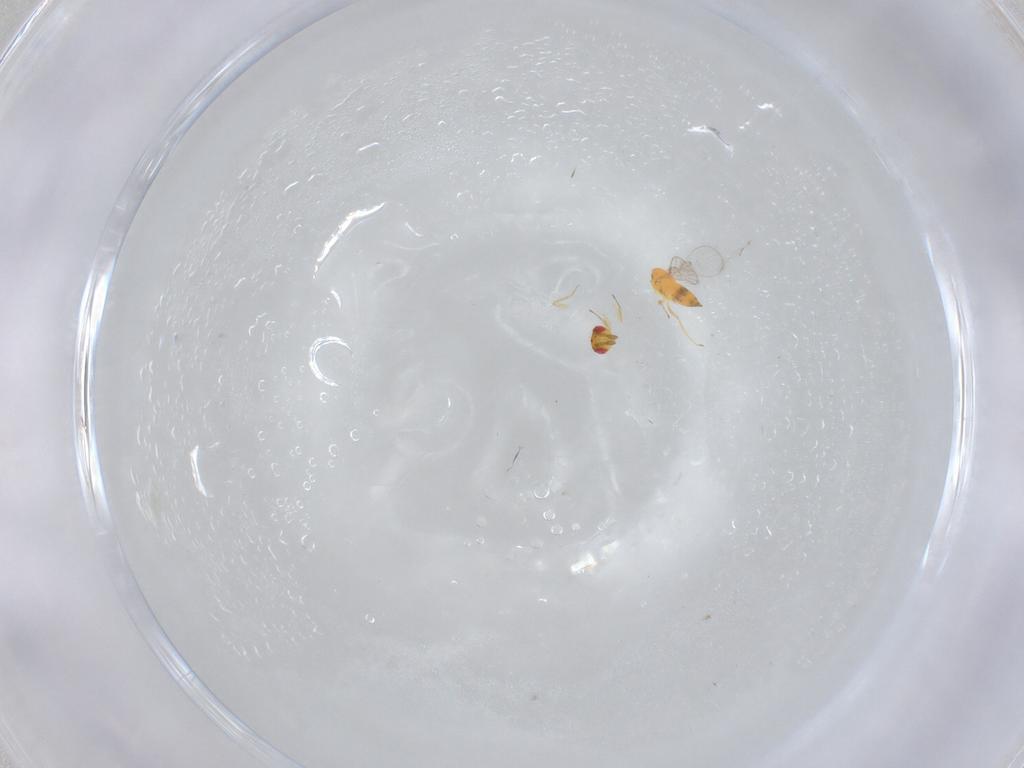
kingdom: Animalia
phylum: Arthropoda
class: Insecta
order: Hymenoptera
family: Trichogrammatidae
